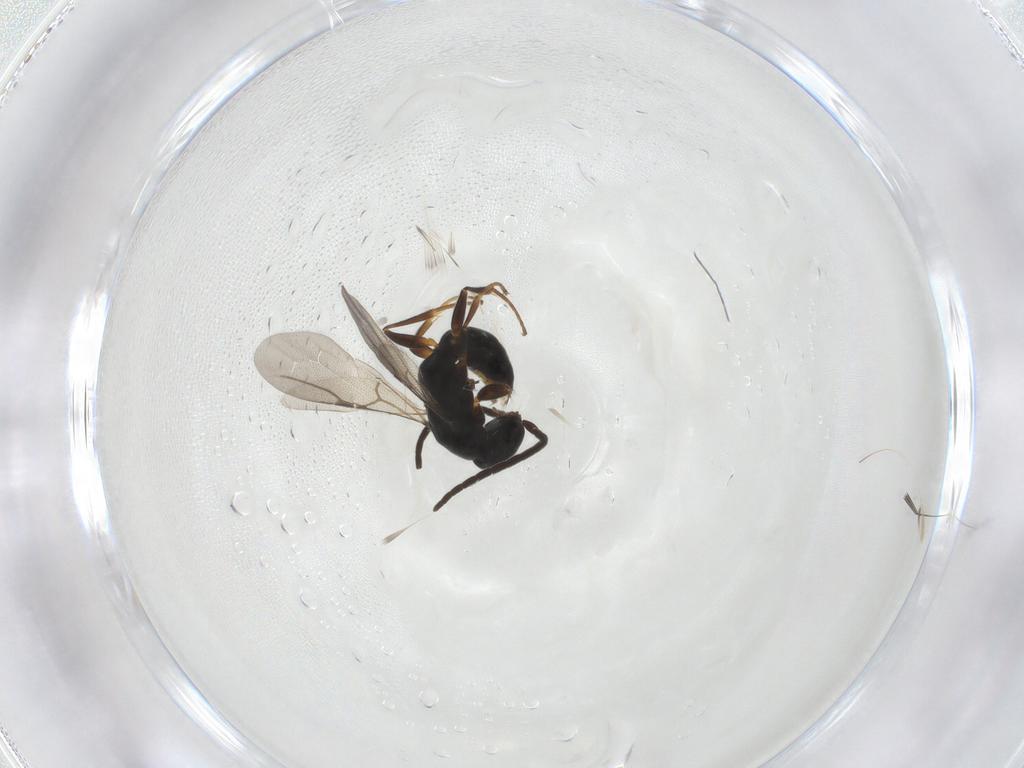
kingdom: Animalia
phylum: Arthropoda
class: Insecta
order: Hymenoptera
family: Bethylidae
